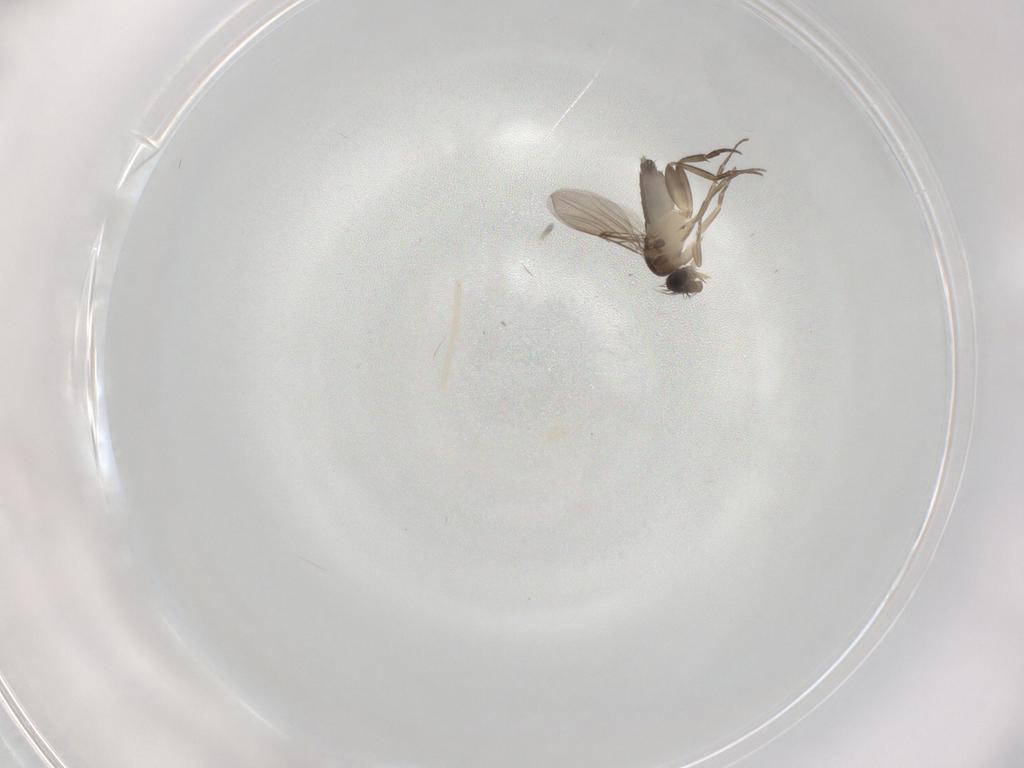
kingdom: Animalia
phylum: Arthropoda
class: Insecta
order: Diptera
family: Phoridae
